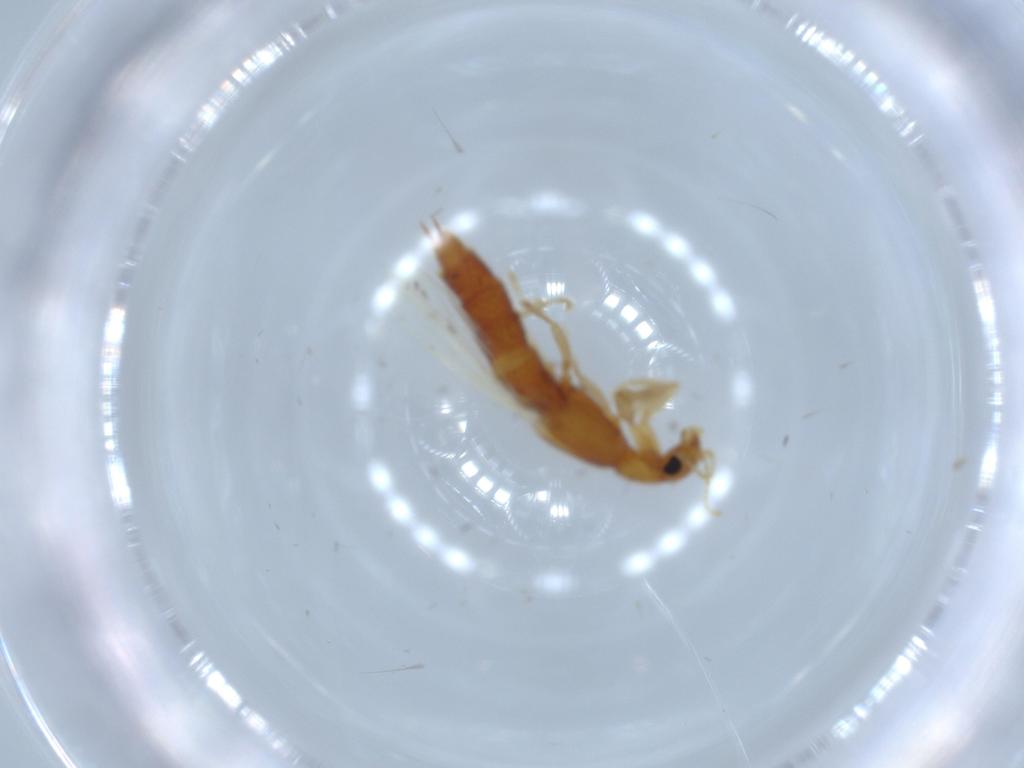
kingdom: Animalia
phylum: Arthropoda
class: Insecta
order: Coleoptera
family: Staphylinidae
